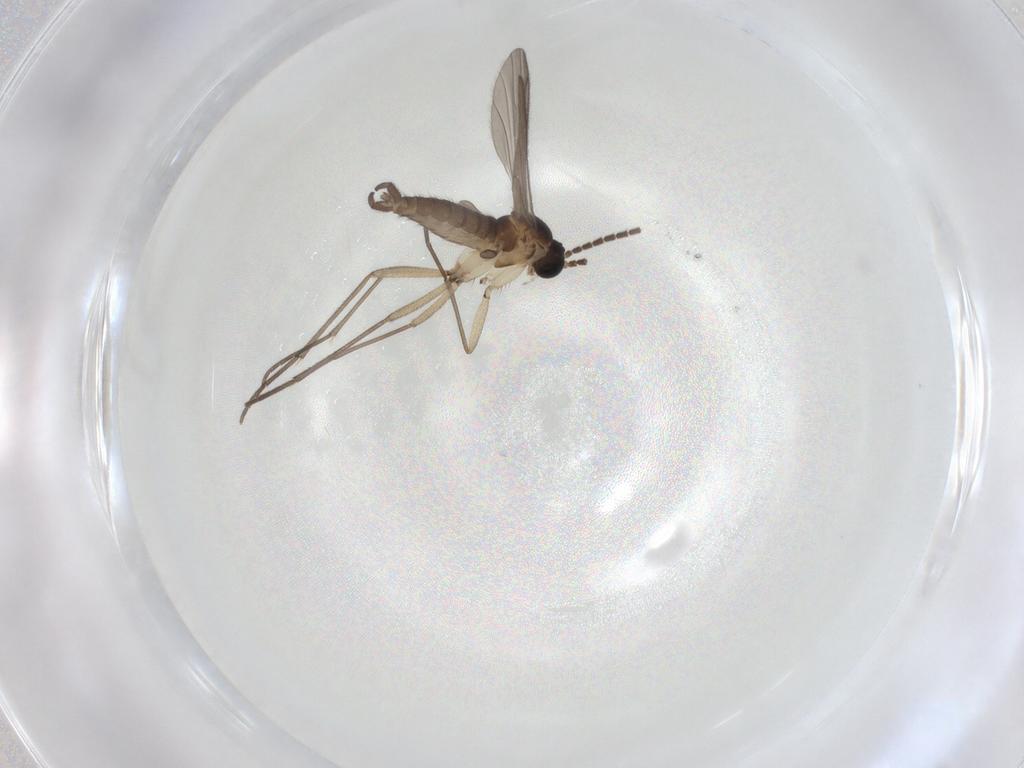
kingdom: Animalia
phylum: Arthropoda
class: Insecta
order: Diptera
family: Sciaridae
